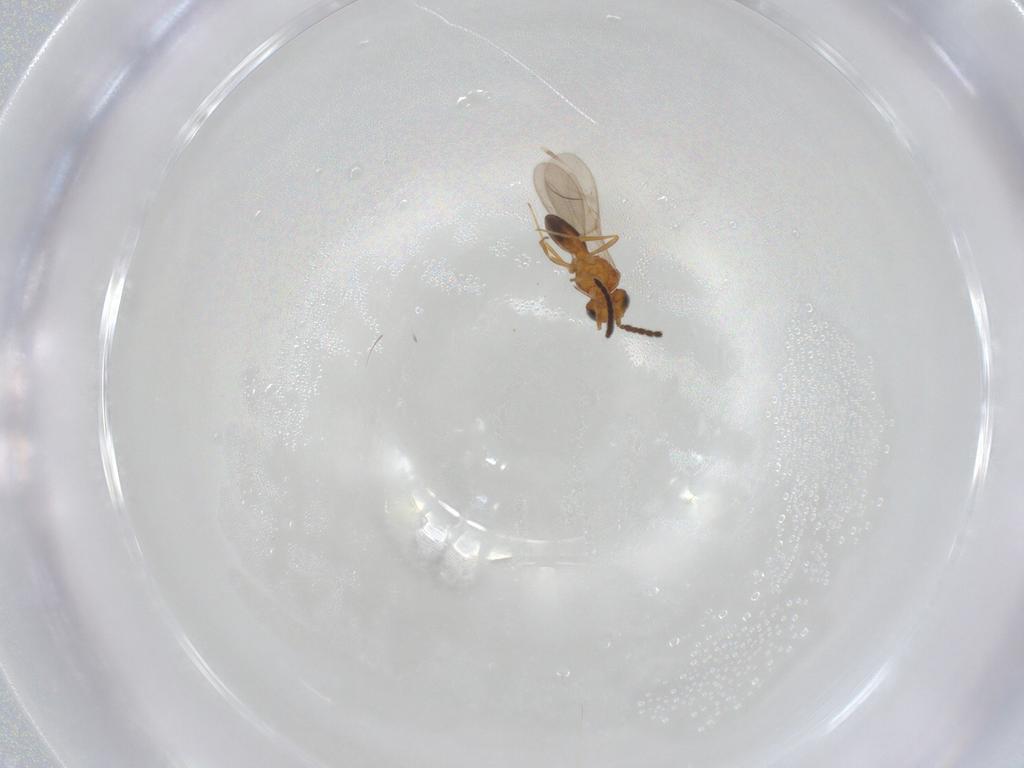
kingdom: Animalia
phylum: Arthropoda
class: Insecta
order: Hymenoptera
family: Scelionidae
